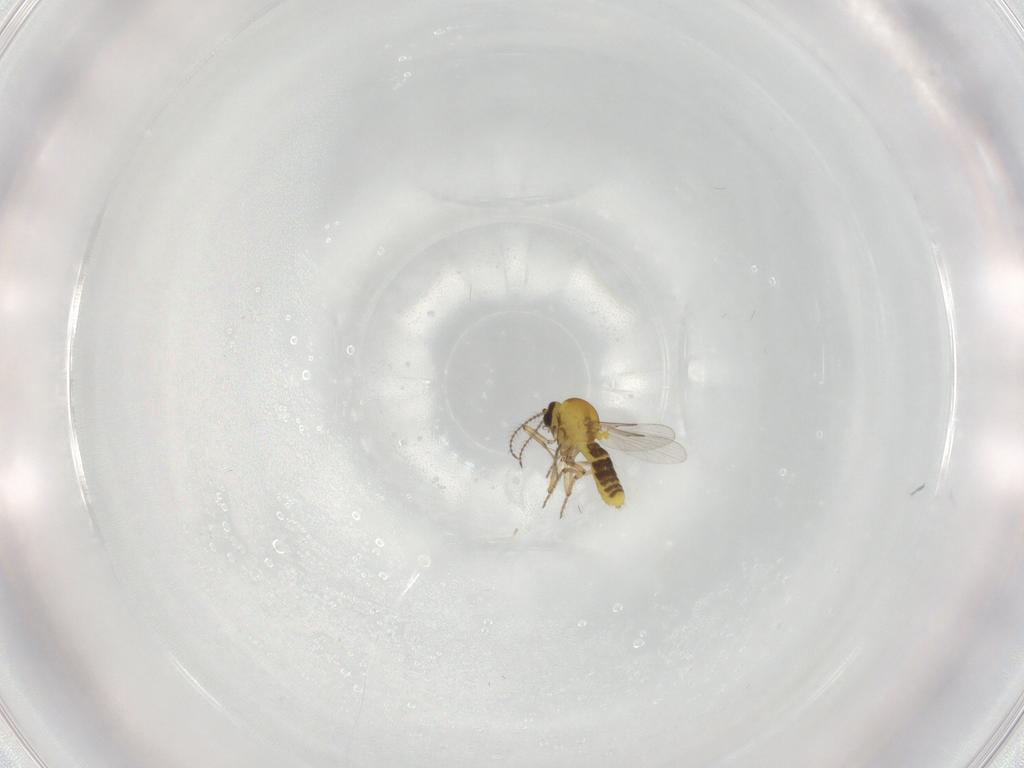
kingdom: Animalia
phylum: Arthropoda
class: Insecta
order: Diptera
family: Ceratopogonidae
